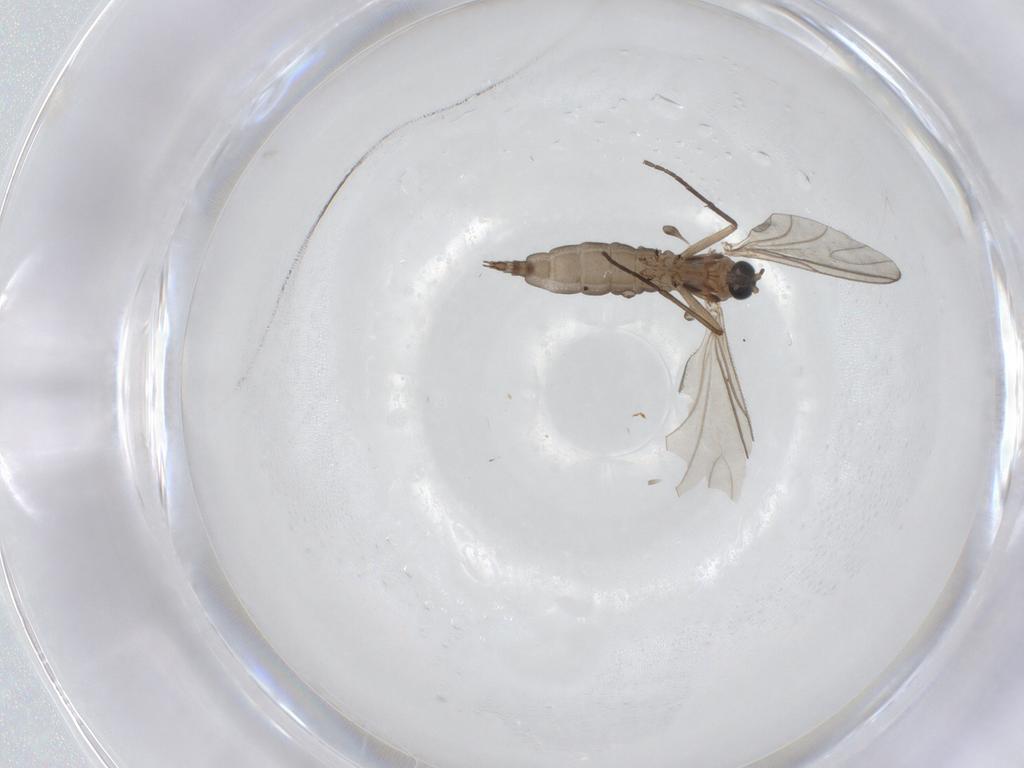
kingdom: Animalia
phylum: Arthropoda
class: Insecta
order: Diptera
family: Sciaridae
